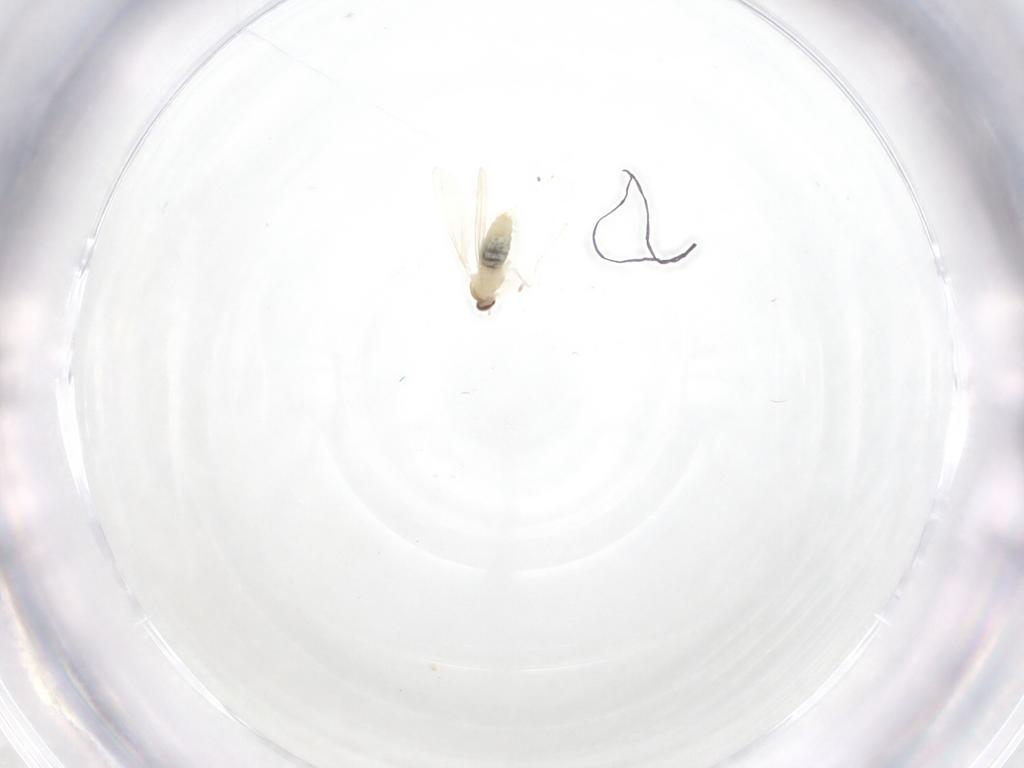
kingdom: Animalia
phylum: Arthropoda
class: Insecta
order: Diptera
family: Cecidomyiidae
